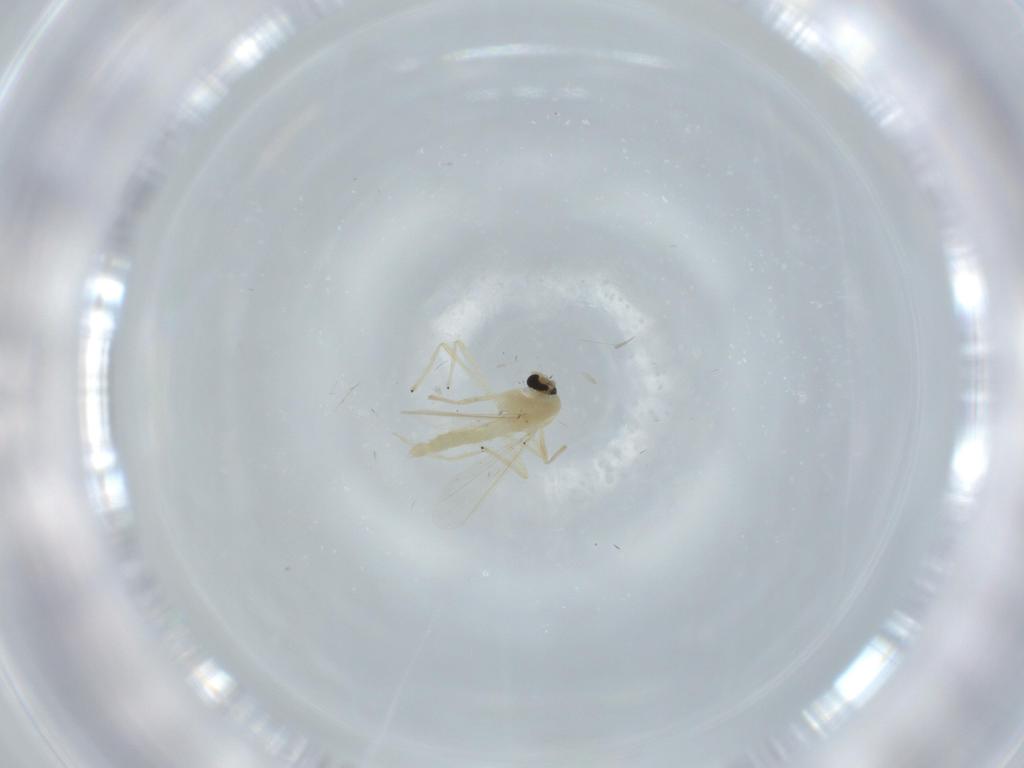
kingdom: Animalia
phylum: Arthropoda
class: Insecta
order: Diptera
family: Chironomidae
